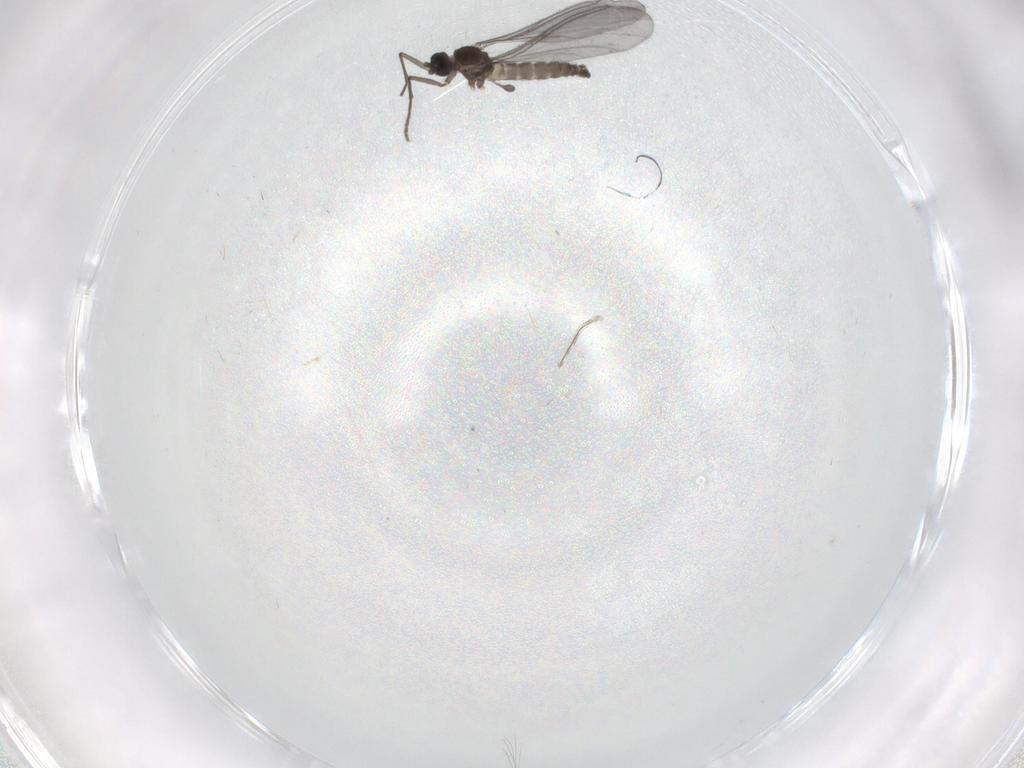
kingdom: Animalia
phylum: Arthropoda
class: Insecta
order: Diptera
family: Sciaridae
